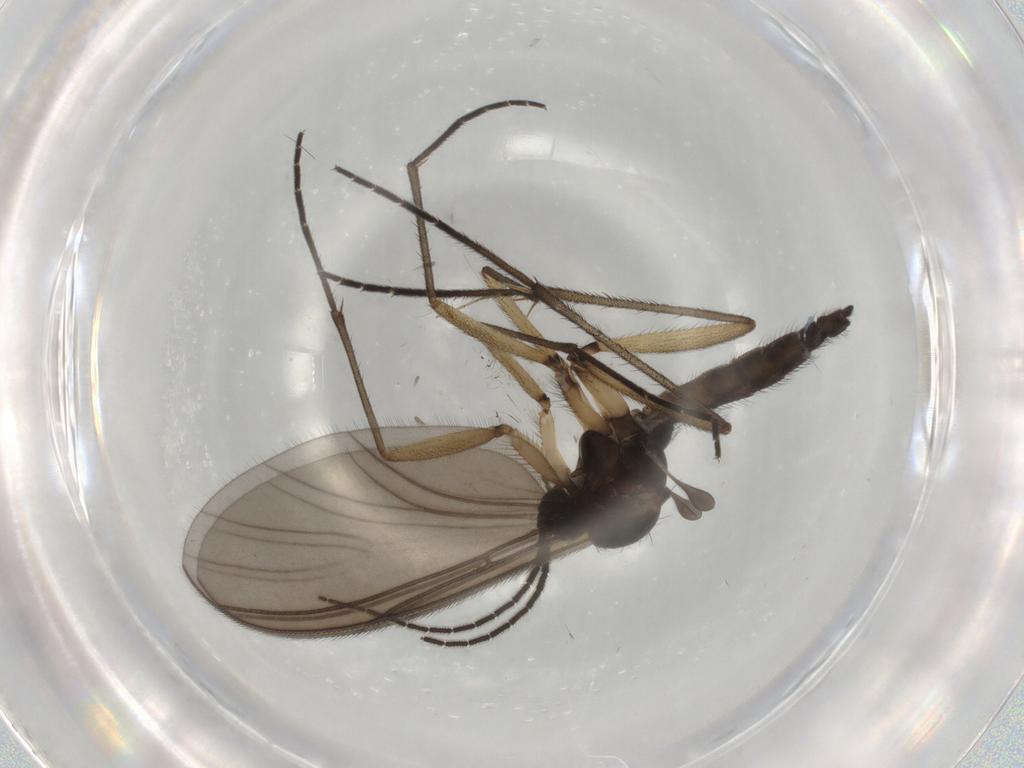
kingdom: Animalia
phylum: Arthropoda
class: Insecta
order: Diptera
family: Sciaridae
